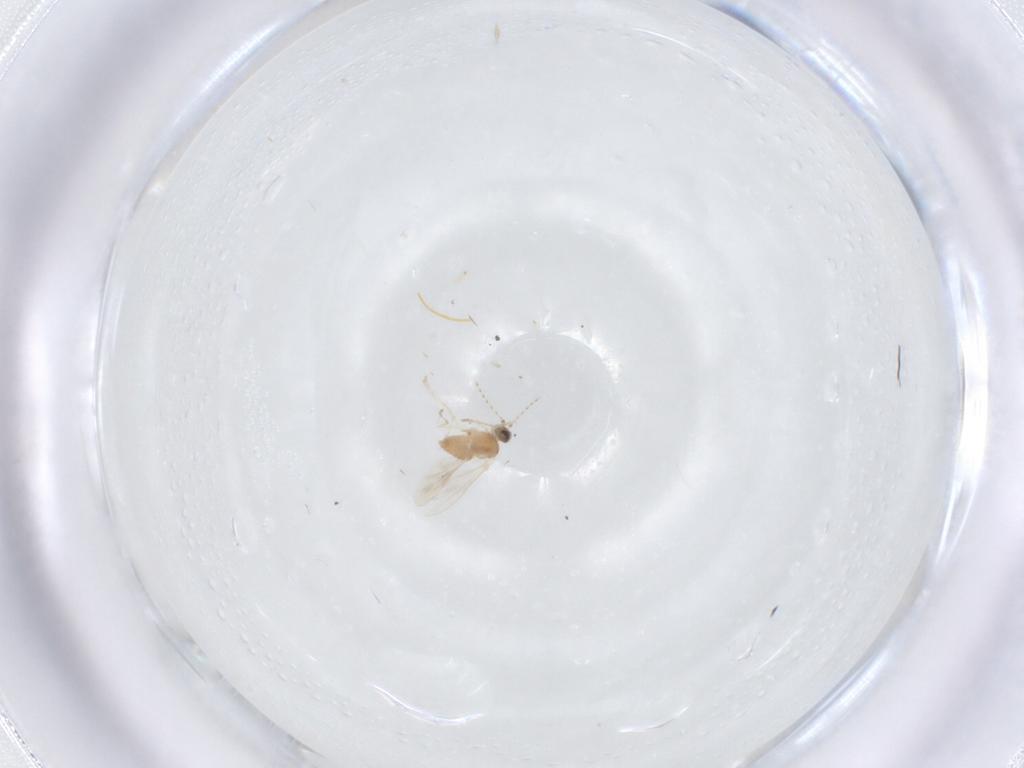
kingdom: Animalia
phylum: Arthropoda
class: Insecta
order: Diptera
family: Cecidomyiidae
